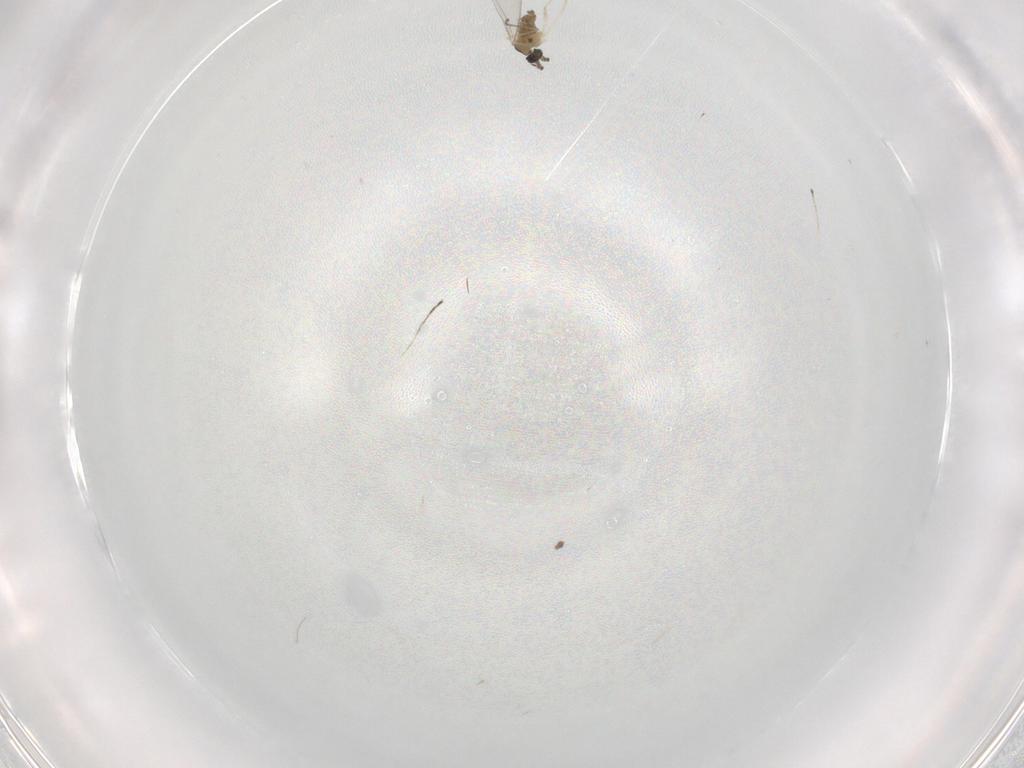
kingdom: Animalia
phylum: Arthropoda
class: Insecta
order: Diptera
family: Cecidomyiidae
